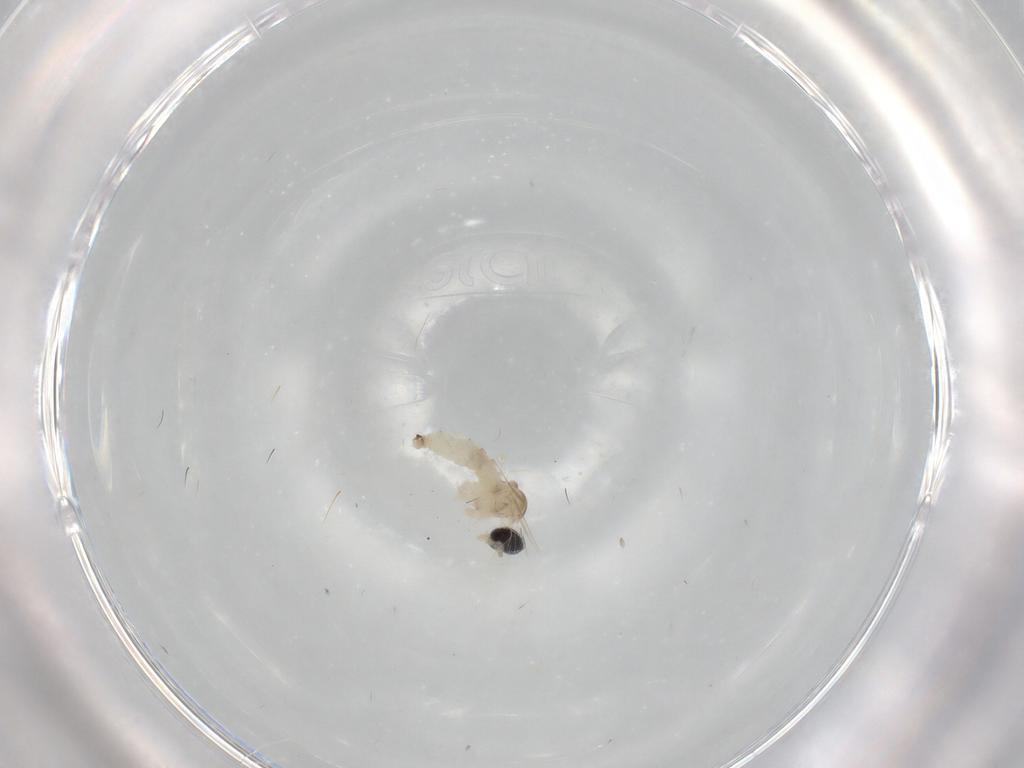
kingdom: Animalia
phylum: Arthropoda
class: Insecta
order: Diptera
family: Cecidomyiidae
